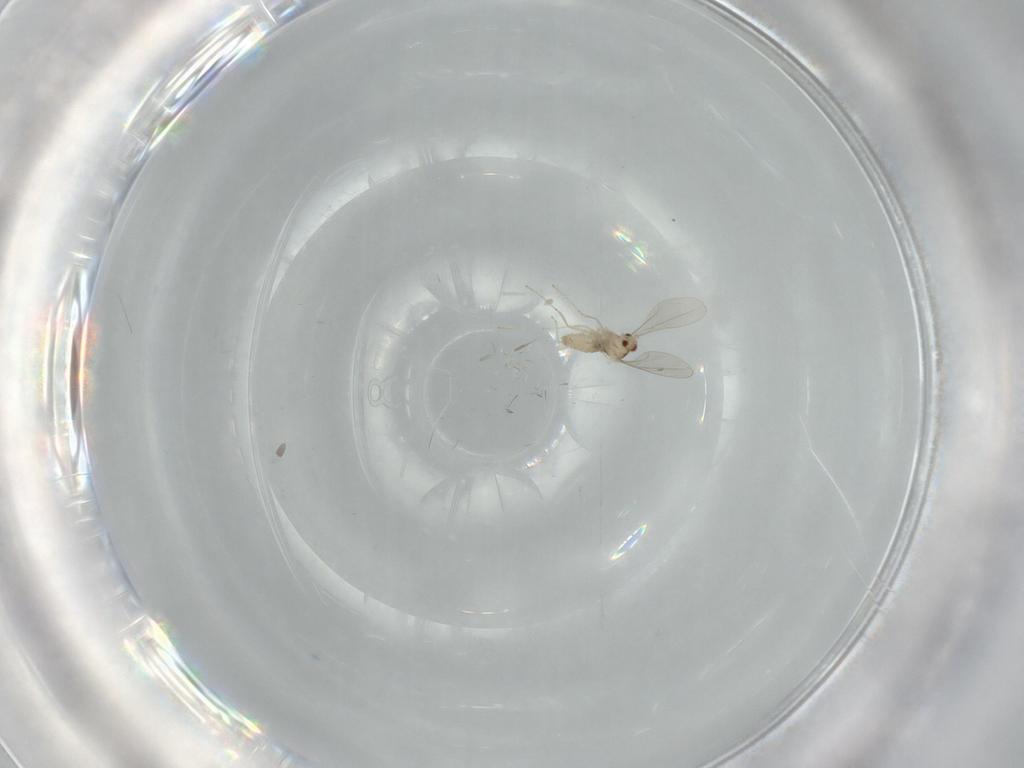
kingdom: Animalia
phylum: Arthropoda
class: Insecta
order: Diptera
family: Cecidomyiidae
